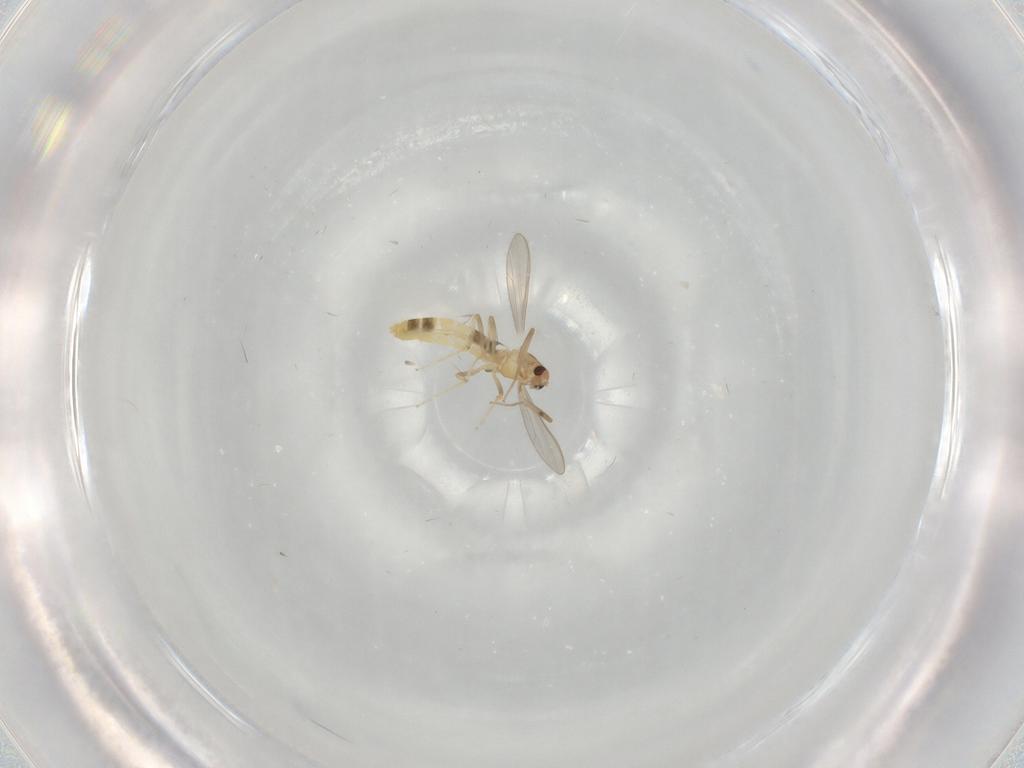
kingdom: Animalia
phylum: Arthropoda
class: Insecta
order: Diptera
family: Chironomidae
